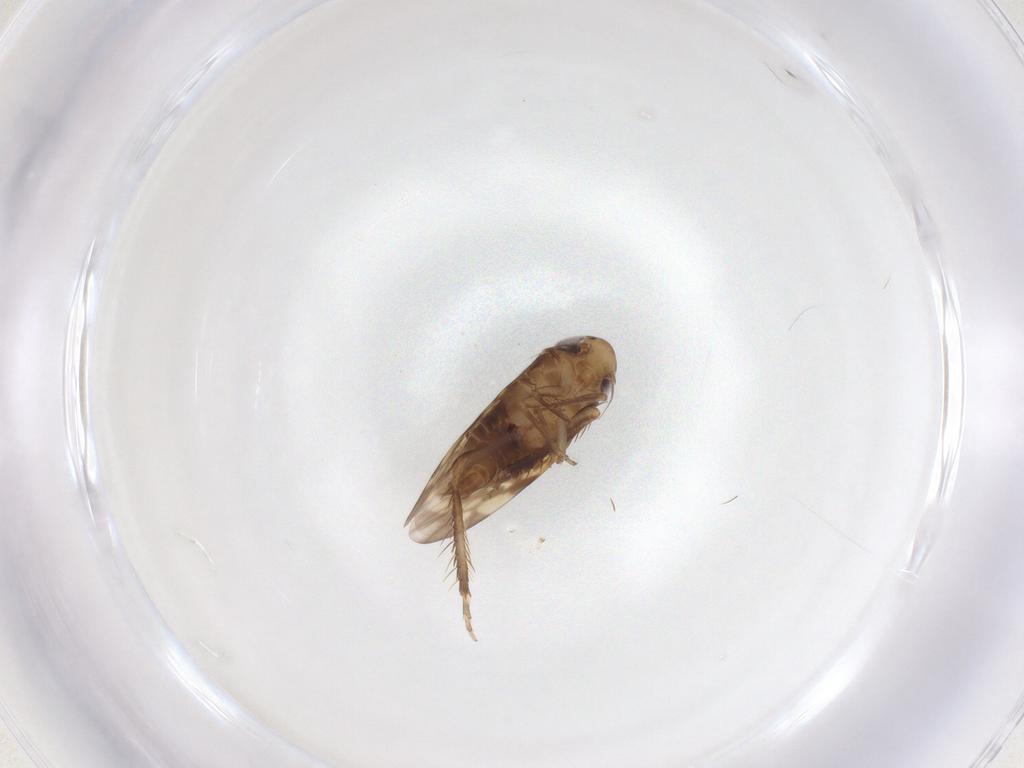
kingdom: Animalia
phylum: Arthropoda
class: Insecta
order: Hemiptera
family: Cicadellidae
